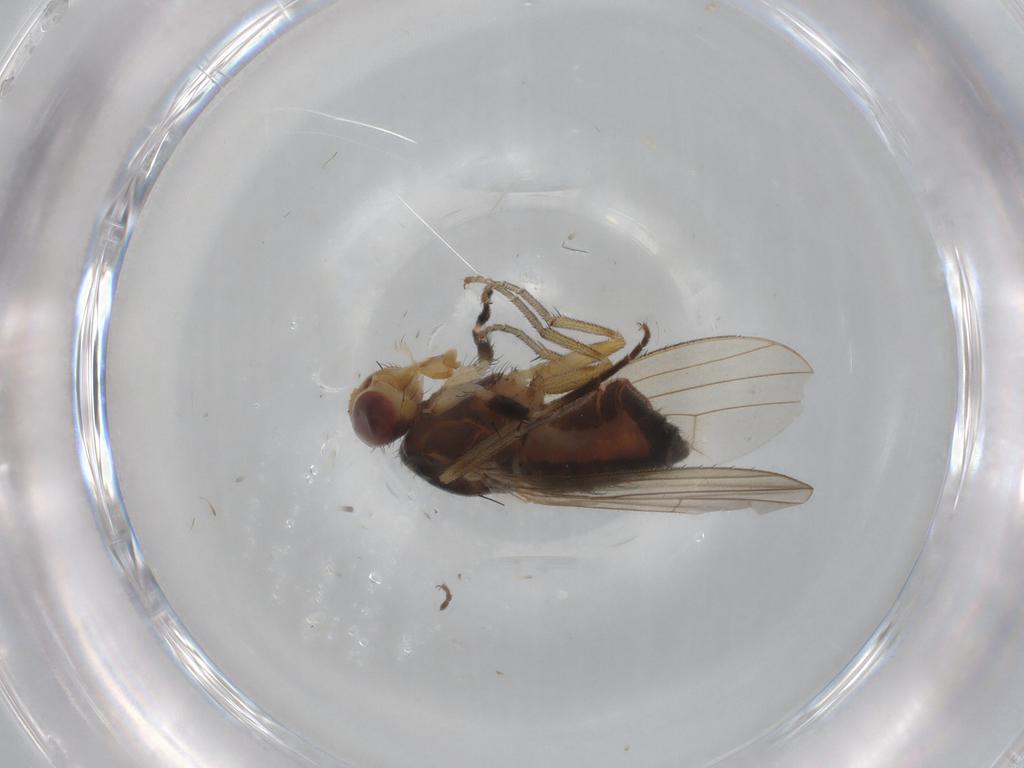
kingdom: Animalia
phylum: Arthropoda
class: Insecta
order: Diptera
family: Heleomyzidae
